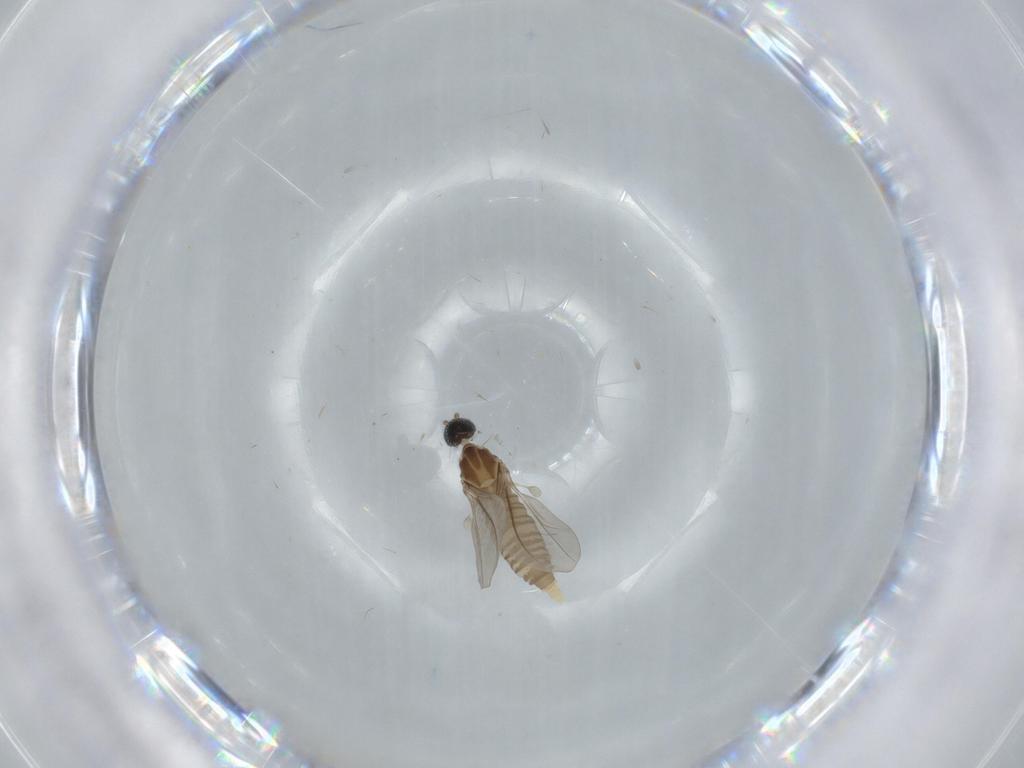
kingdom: Animalia
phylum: Arthropoda
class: Insecta
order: Diptera
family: Cecidomyiidae
